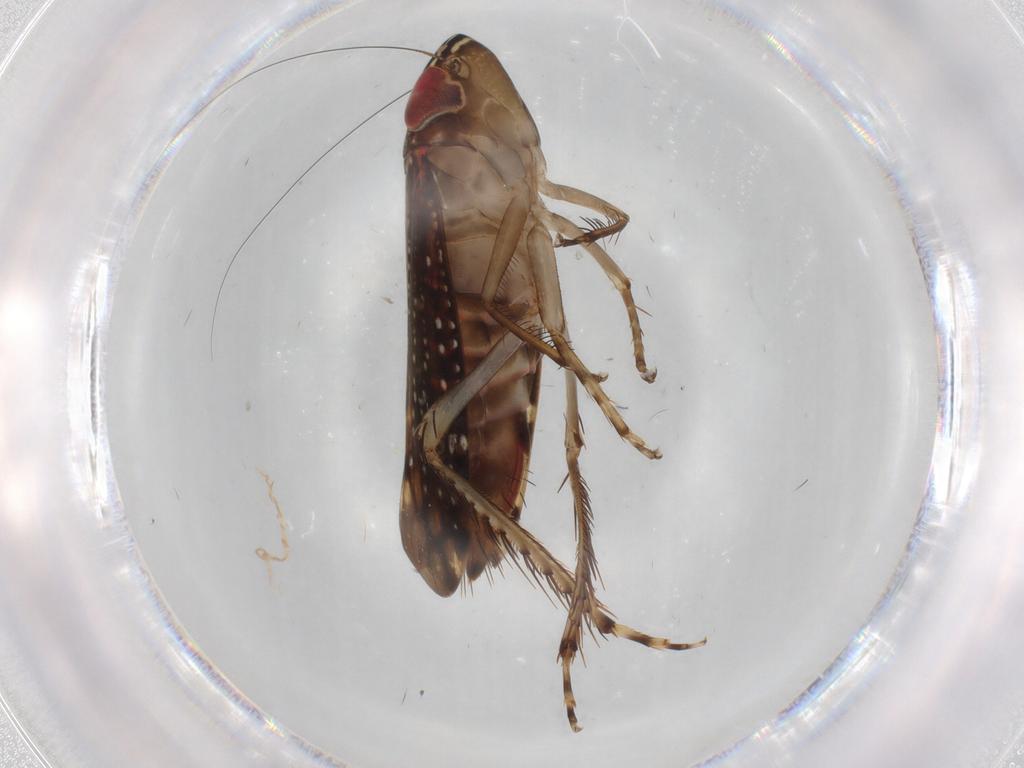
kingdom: Animalia
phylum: Arthropoda
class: Insecta
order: Hemiptera
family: Cicadellidae
